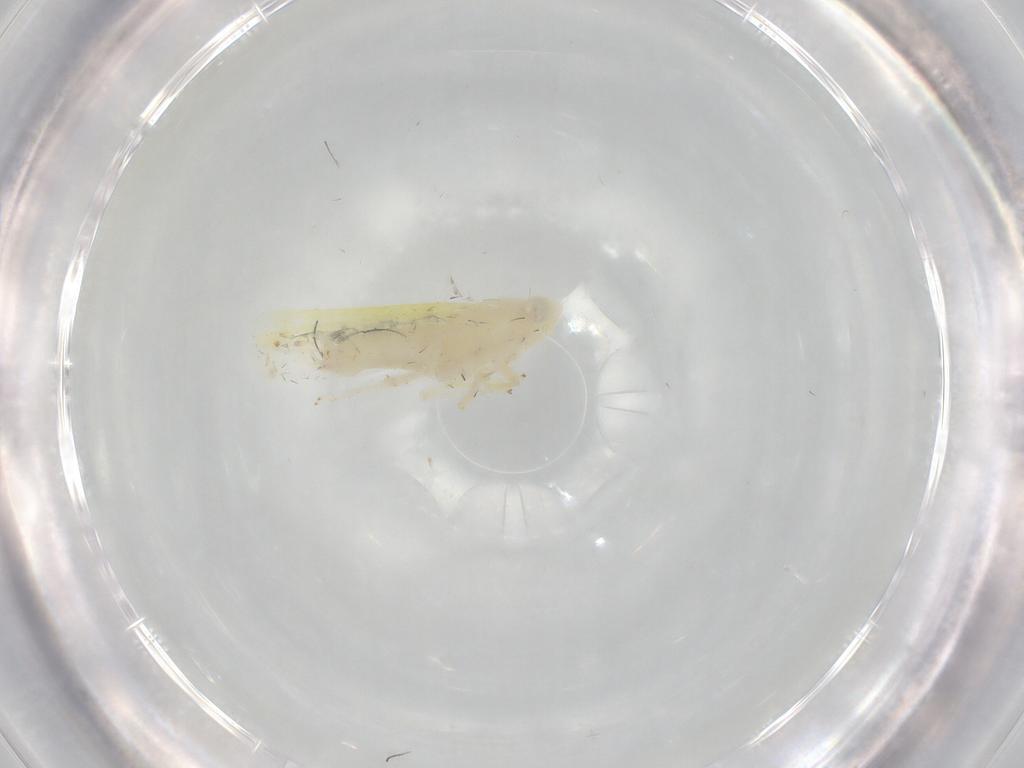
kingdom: Animalia
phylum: Arthropoda
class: Insecta
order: Hemiptera
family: Cicadellidae
